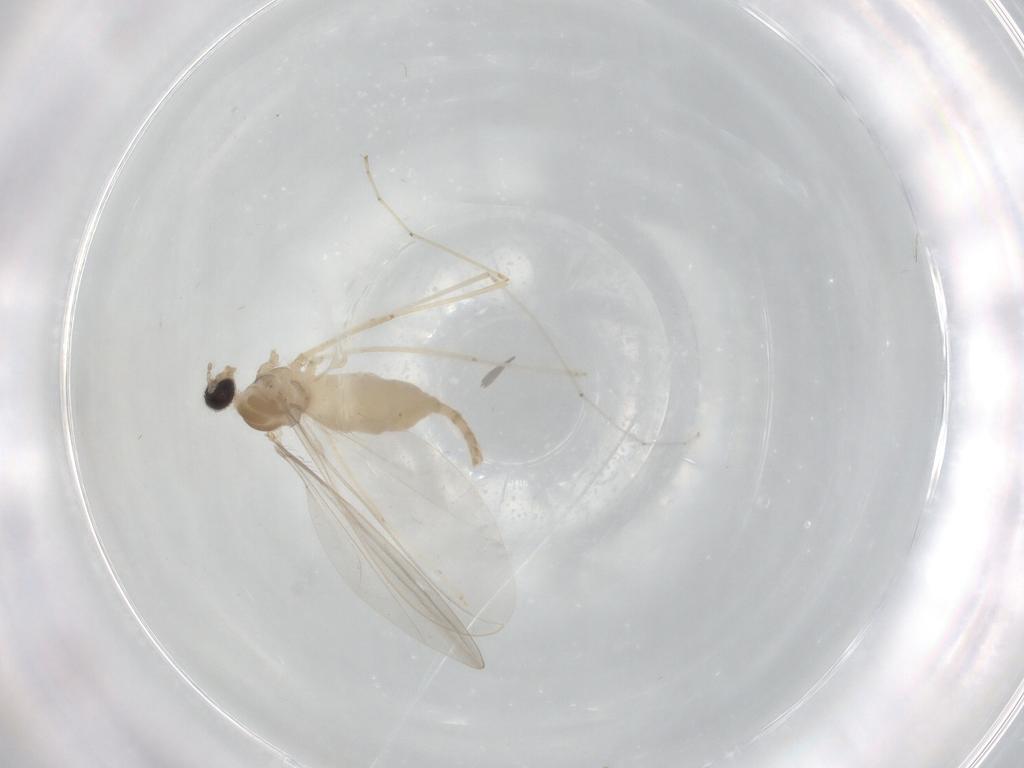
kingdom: Animalia
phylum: Arthropoda
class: Insecta
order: Diptera
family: Cecidomyiidae
